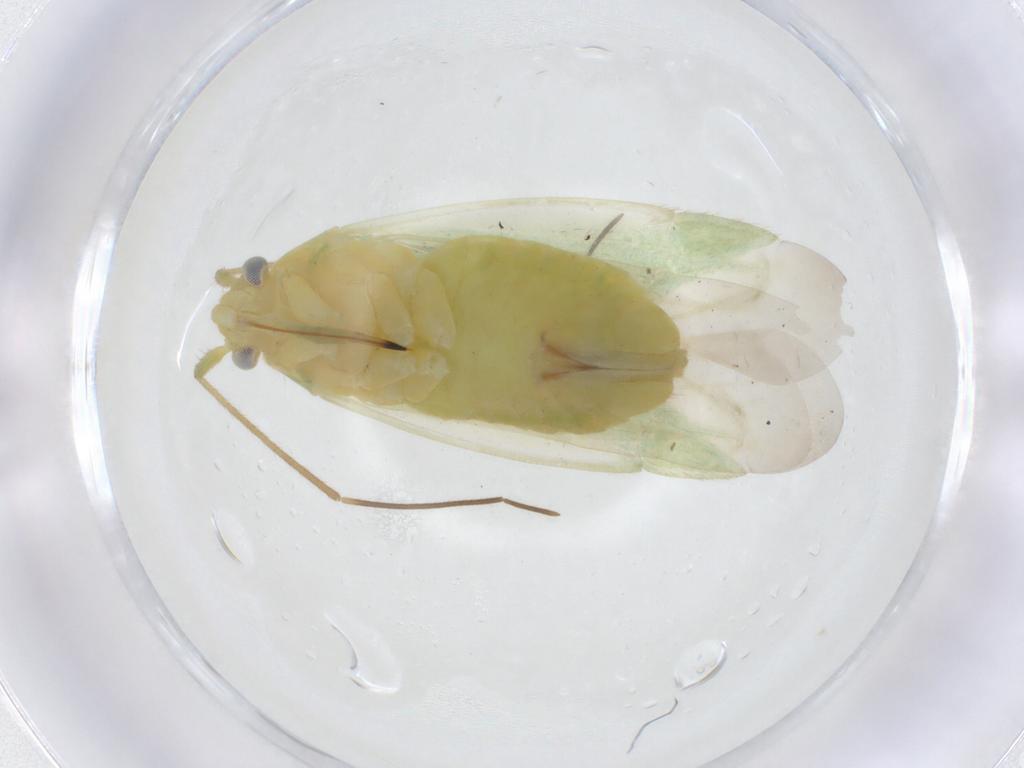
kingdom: Animalia
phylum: Arthropoda
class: Insecta
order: Hemiptera
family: Miridae
